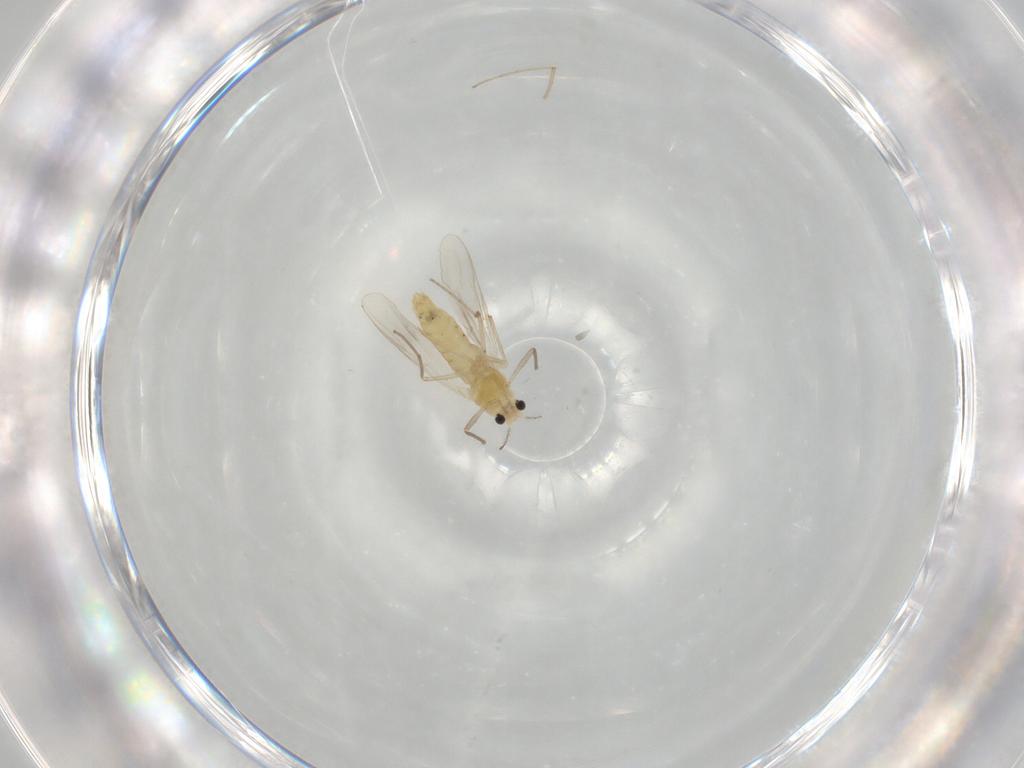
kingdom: Animalia
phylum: Arthropoda
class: Insecta
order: Diptera
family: Chironomidae
